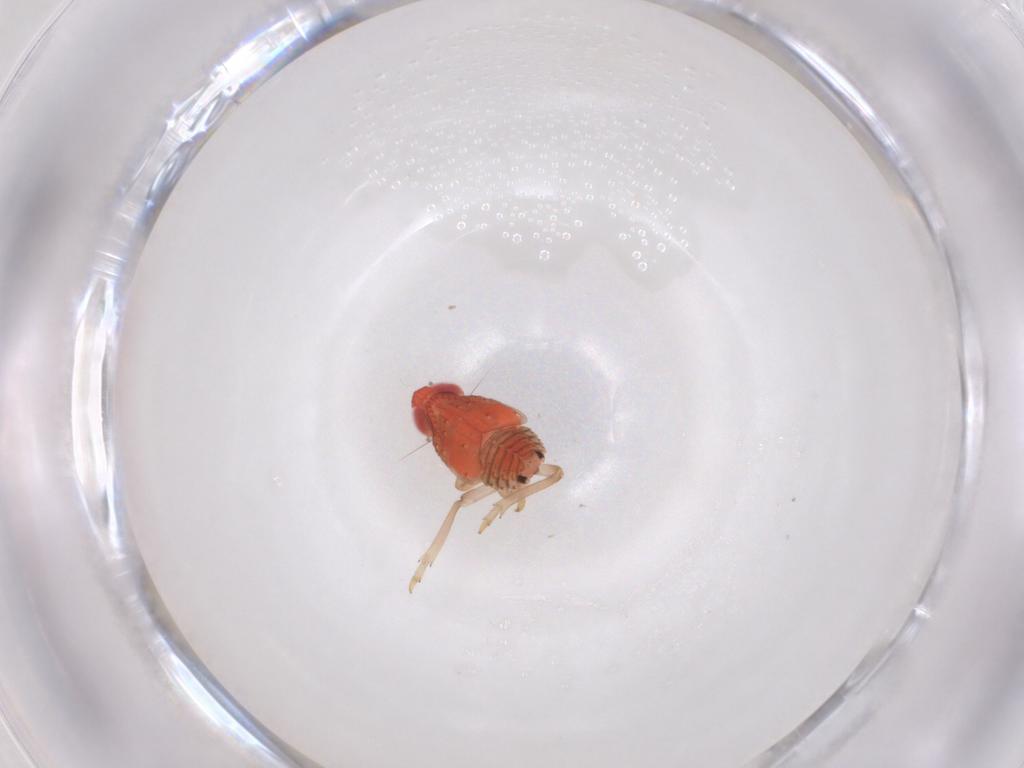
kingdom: Animalia
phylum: Arthropoda
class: Insecta
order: Hemiptera
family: Issidae
